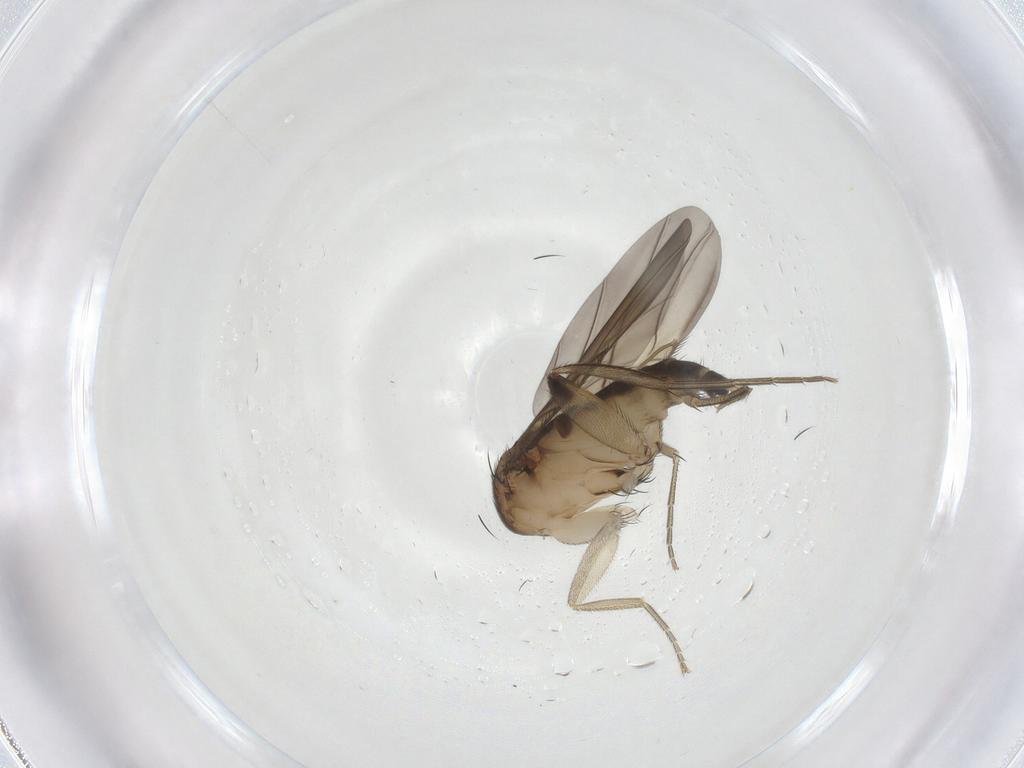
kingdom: Animalia
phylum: Arthropoda
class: Insecta
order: Diptera
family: Phoridae
